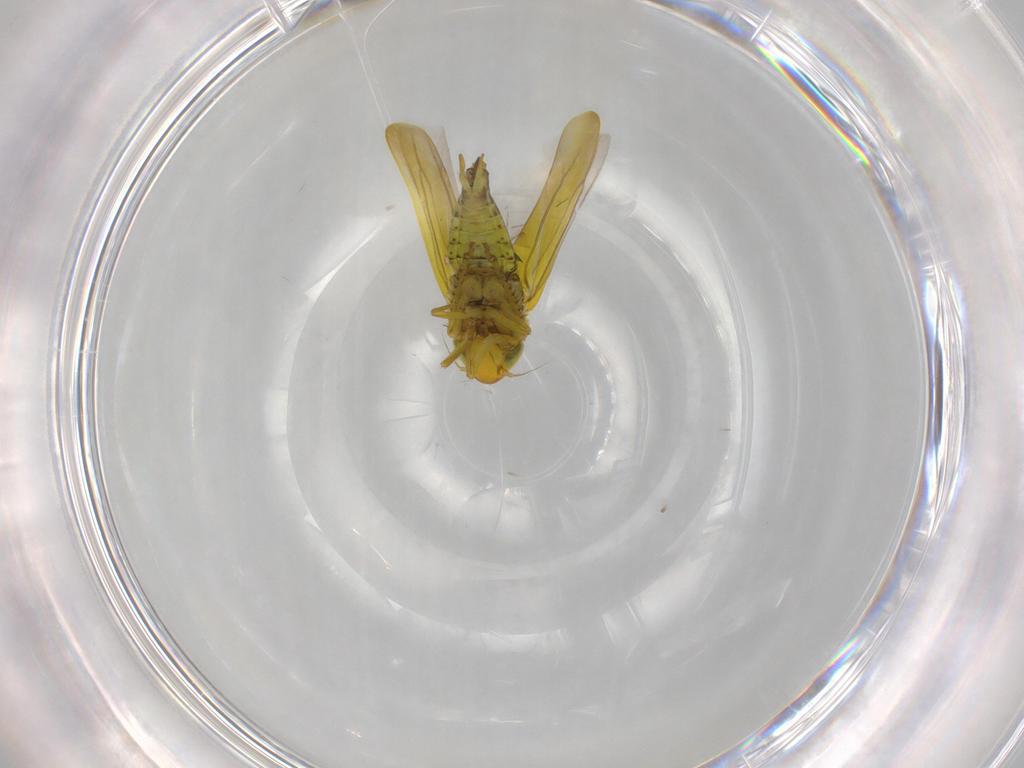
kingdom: Animalia
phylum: Arthropoda
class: Insecta
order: Hemiptera
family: Cicadellidae
